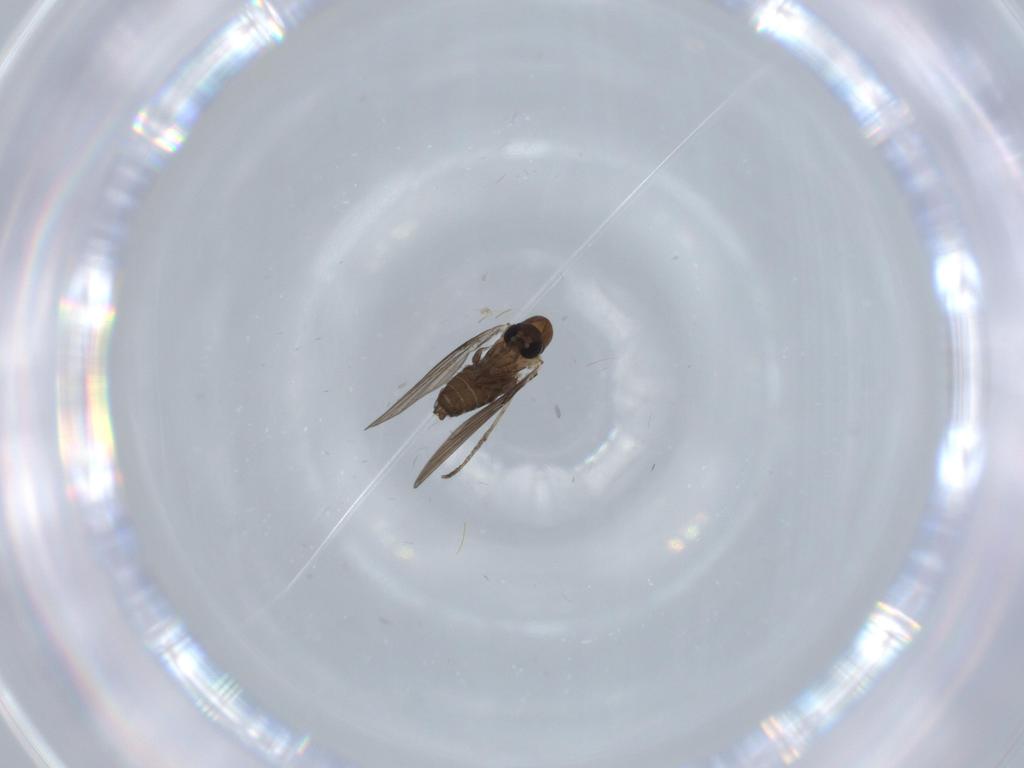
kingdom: Animalia
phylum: Arthropoda
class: Insecta
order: Diptera
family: Psychodidae
